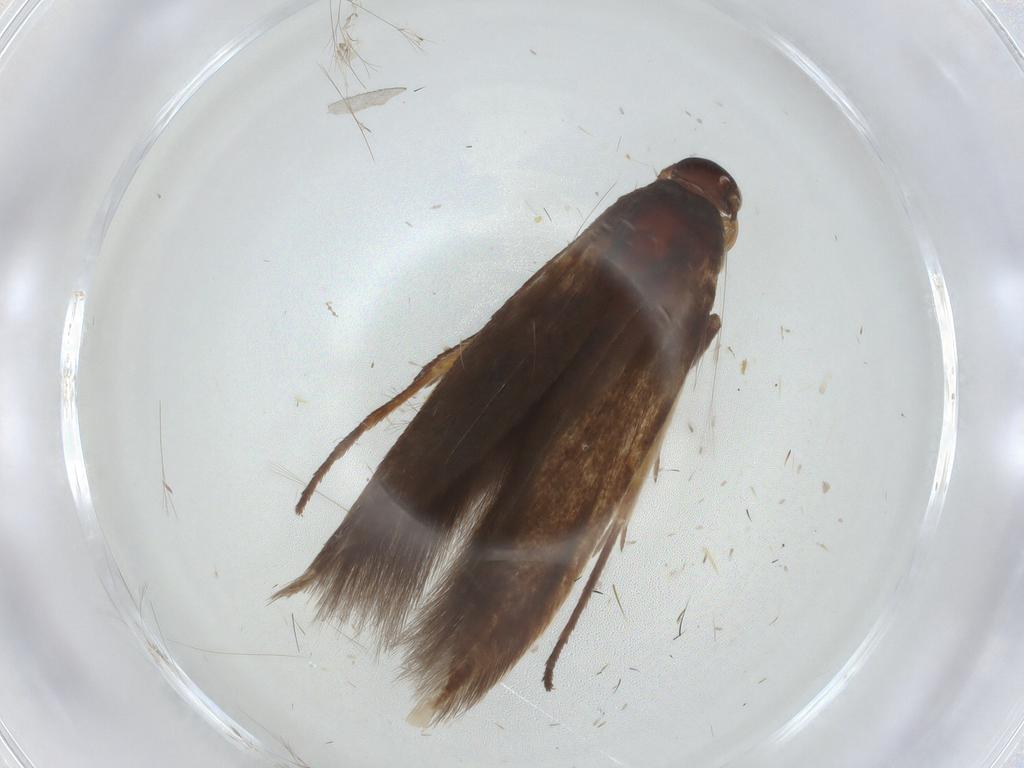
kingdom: Animalia
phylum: Arthropoda
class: Insecta
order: Lepidoptera
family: Scythrididae
